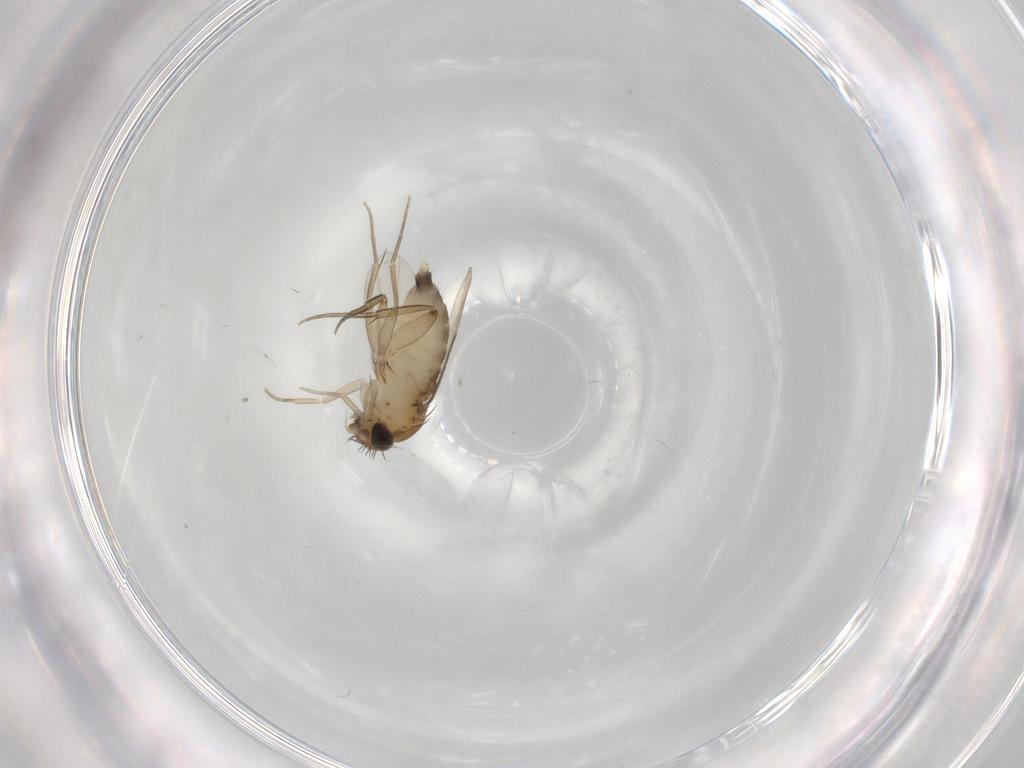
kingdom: Animalia
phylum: Arthropoda
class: Insecta
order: Diptera
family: Phoridae
